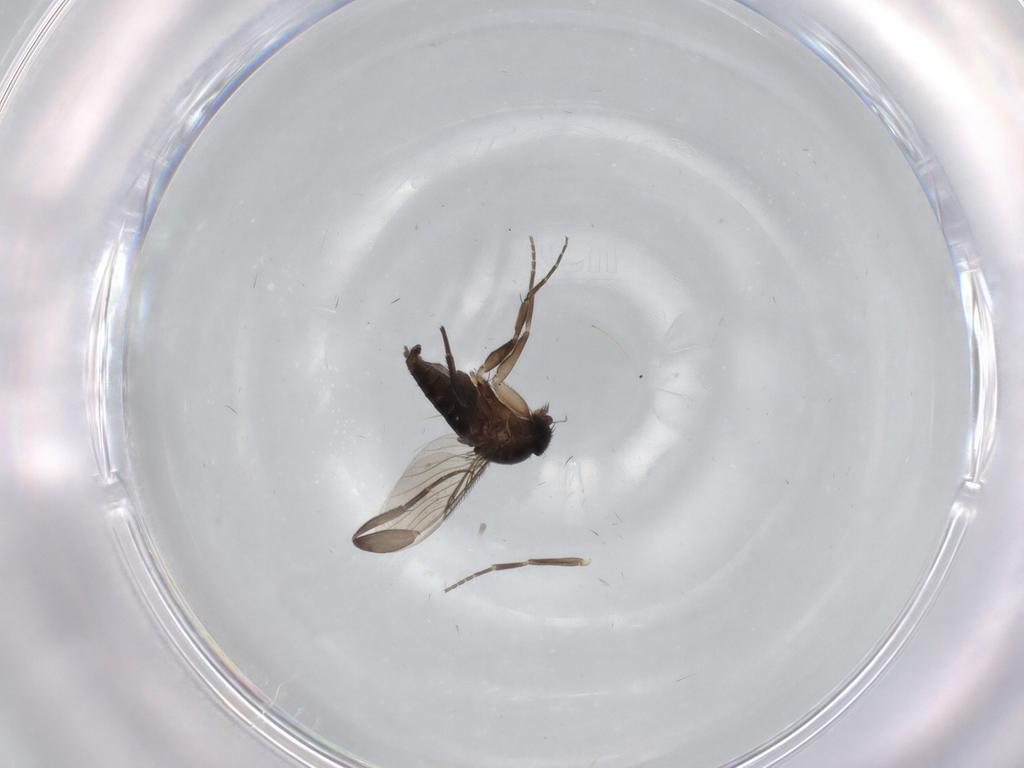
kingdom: Animalia
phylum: Arthropoda
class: Insecta
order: Diptera
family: Phoridae
